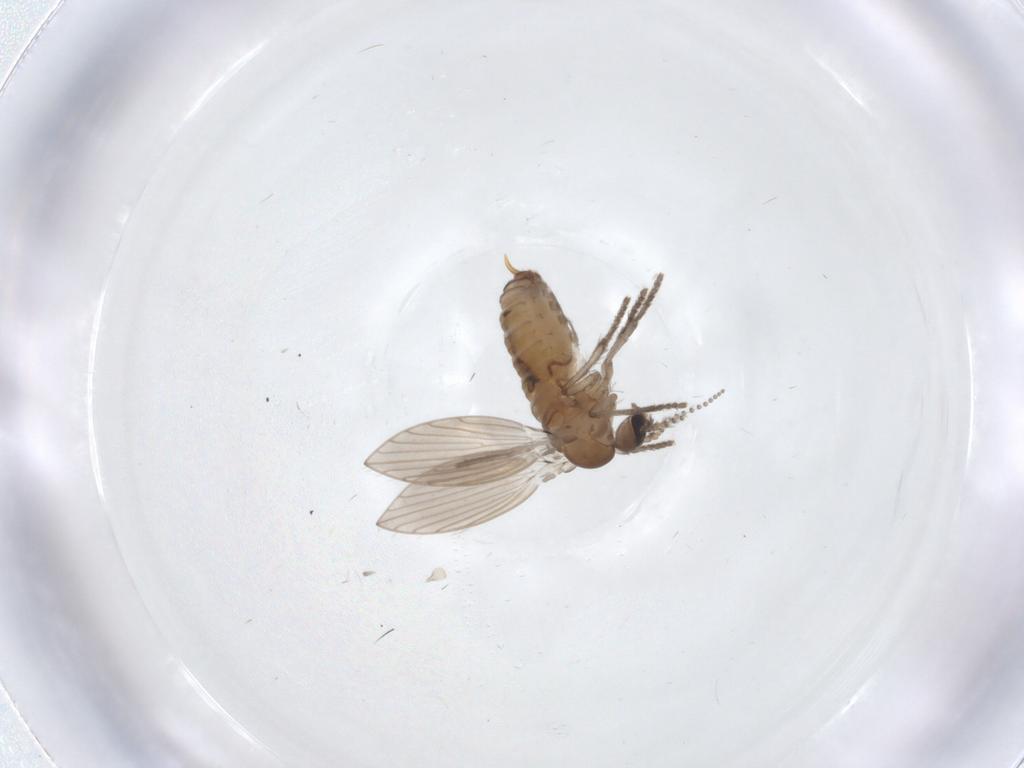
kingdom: Animalia
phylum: Arthropoda
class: Insecta
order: Diptera
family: Psychodidae
